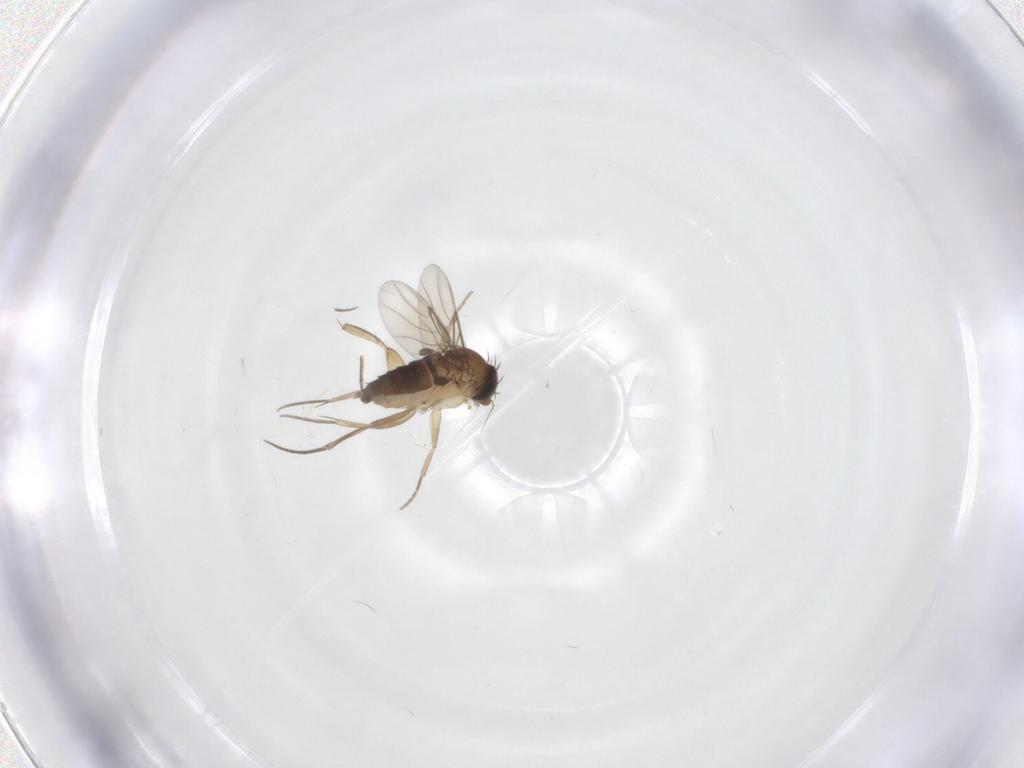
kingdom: Animalia
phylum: Arthropoda
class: Insecta
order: Diptera
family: Phoridae
